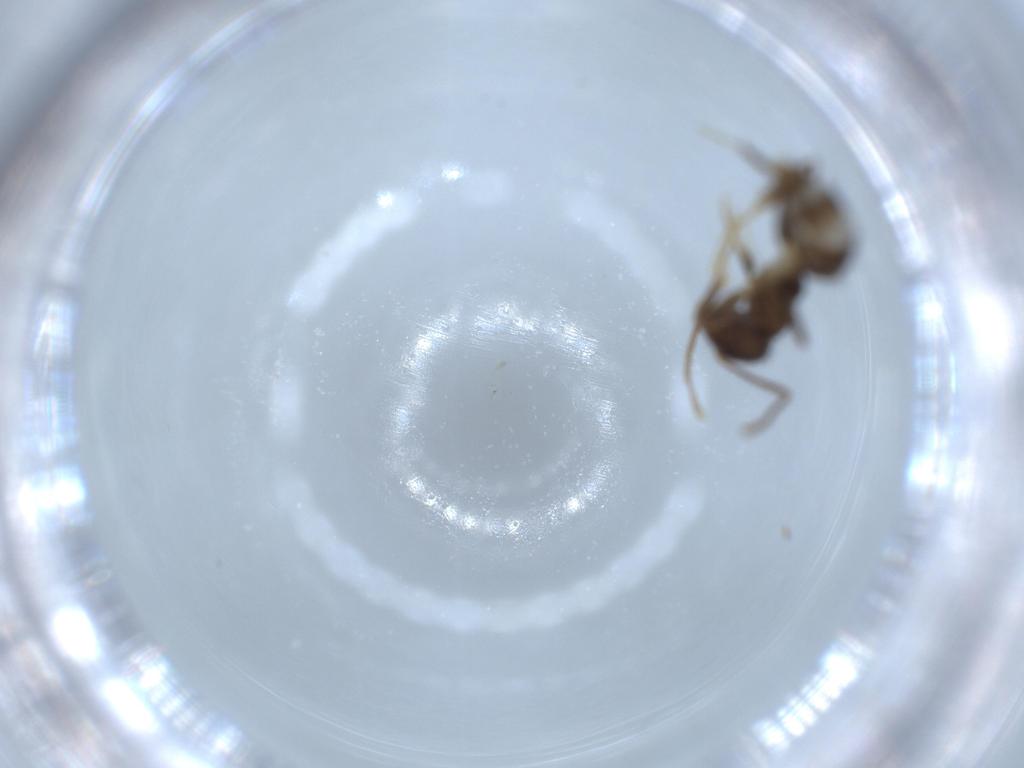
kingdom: Animalia
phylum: Arthropoda
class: Insecta
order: Hymenoptera
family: Formicidae
